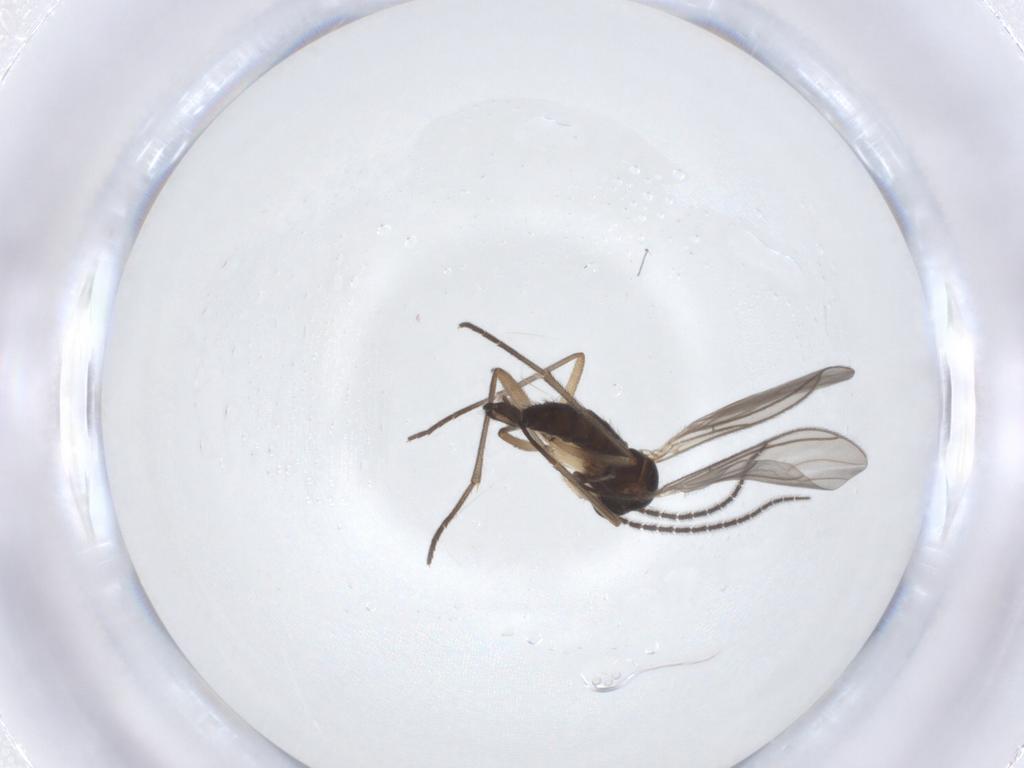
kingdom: Animalia
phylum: Arthropoda
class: Insecta
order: Diptera
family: Sciaridae
